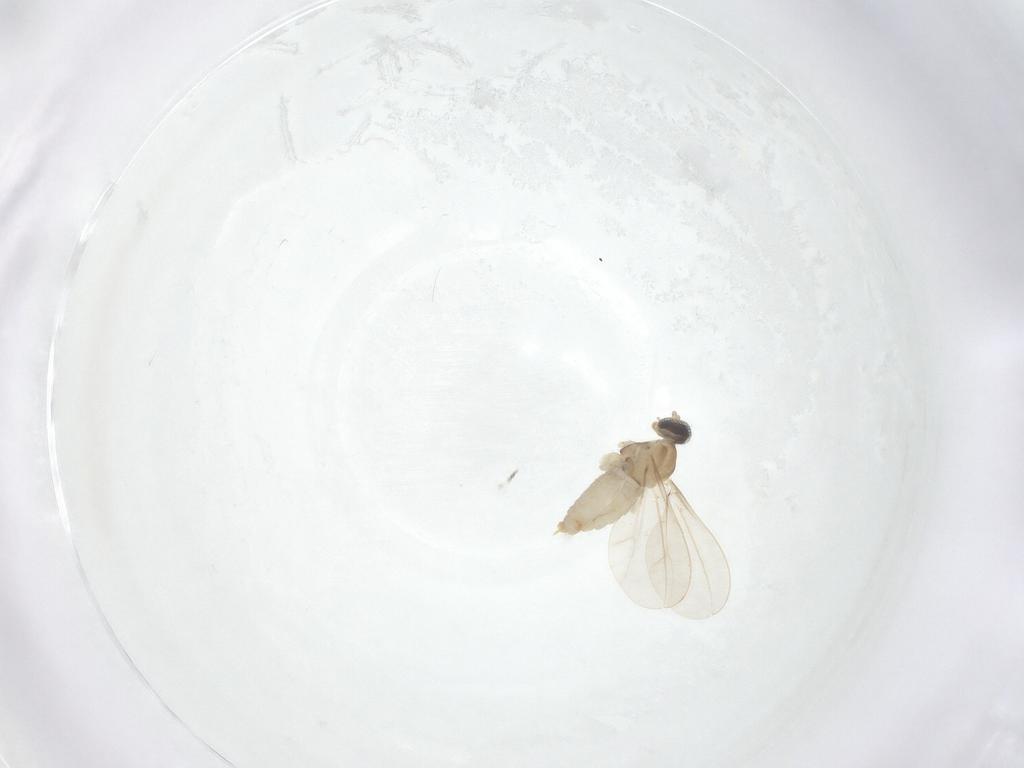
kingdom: Animalia
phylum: Arthropoda
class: Insecta
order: Diptera
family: Cecidomyiidae
